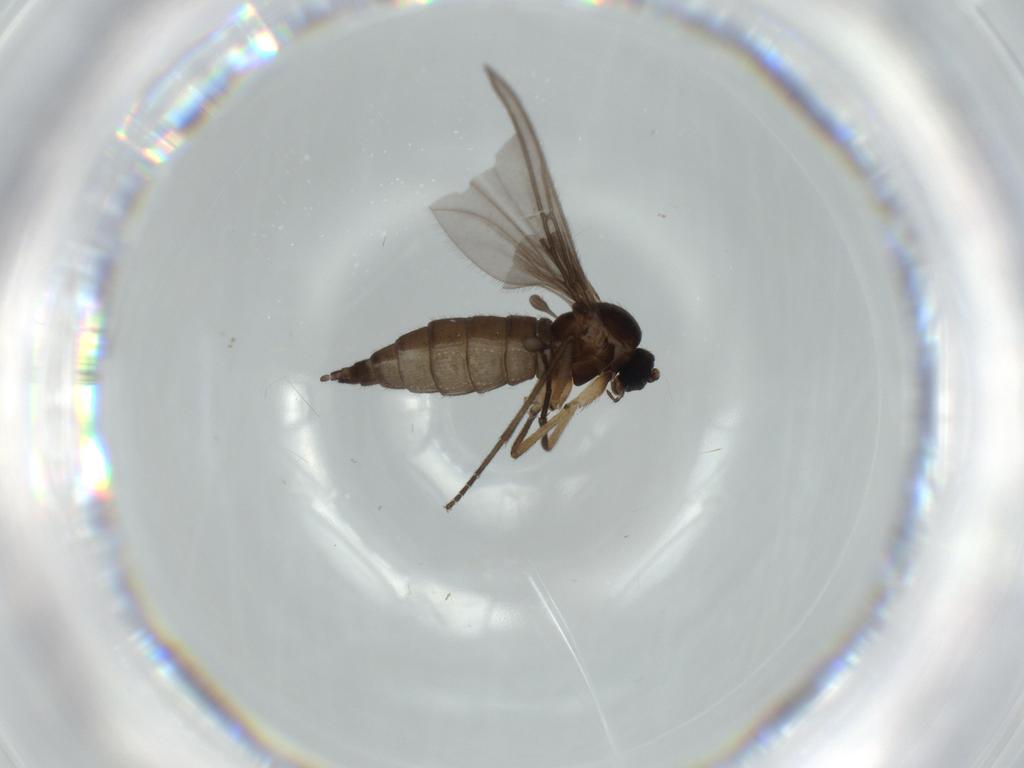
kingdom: Animalia
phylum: Arthropoda
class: Insecta
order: Diptera
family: Sciaridae
